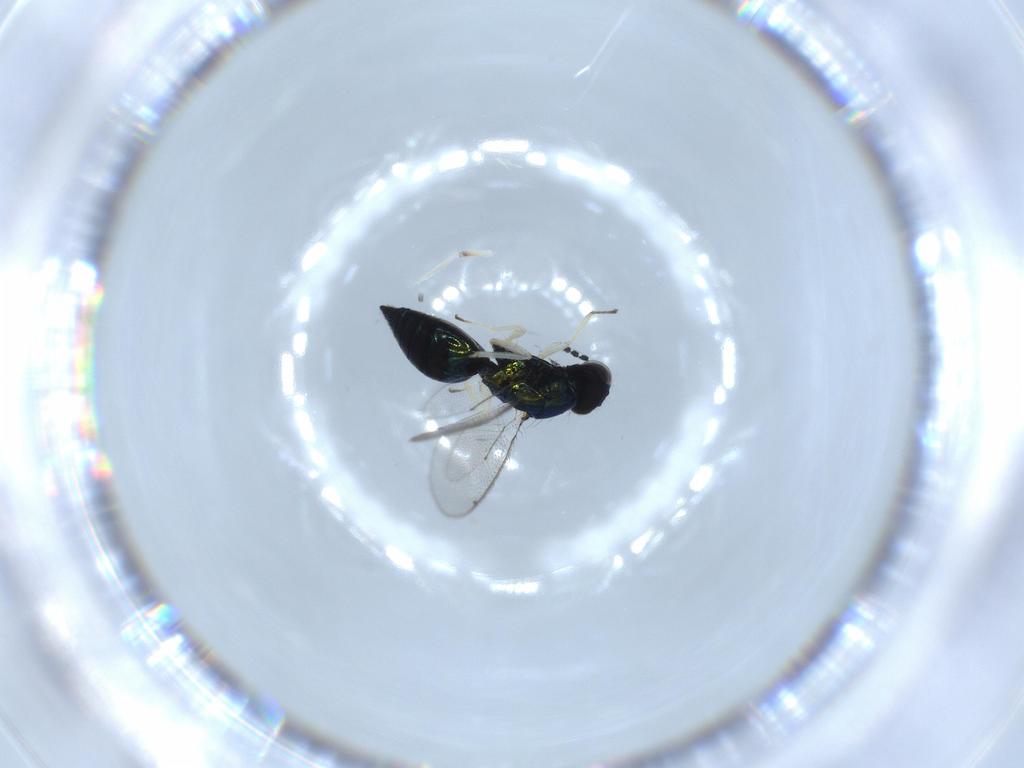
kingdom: Animalia
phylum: Arthropoda
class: Insecta
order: Hymenoptera
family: Eulophidae
